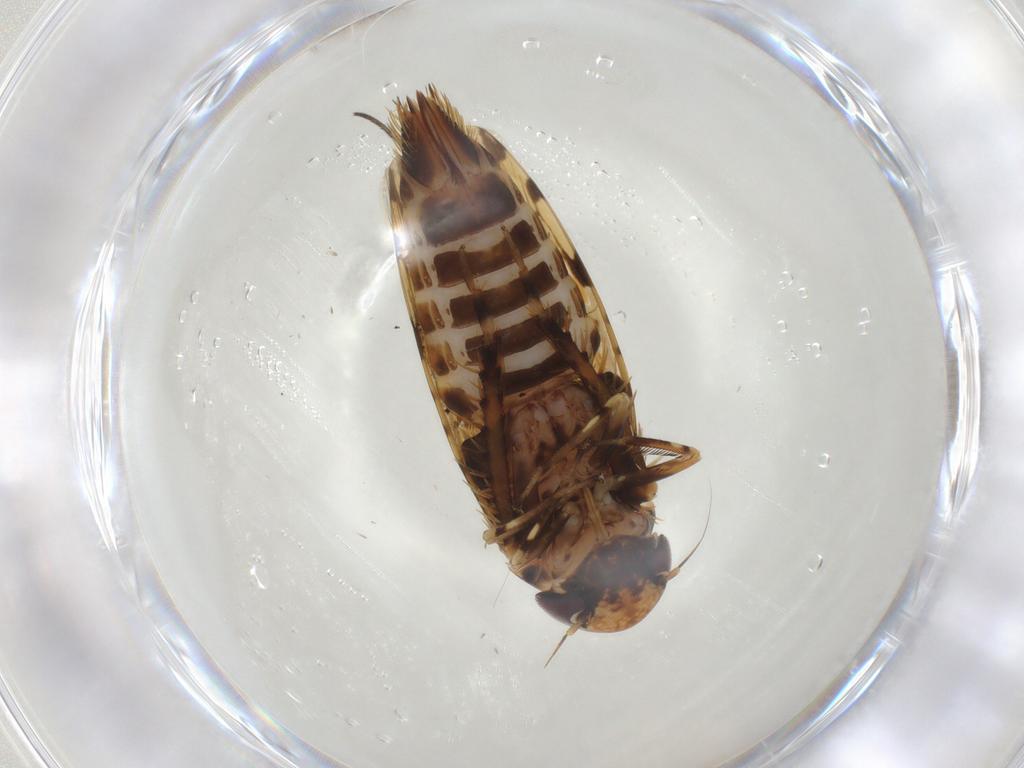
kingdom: Animalia
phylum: Arthropoda
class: Insecta
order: Hemiptera
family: Cicadellidae
